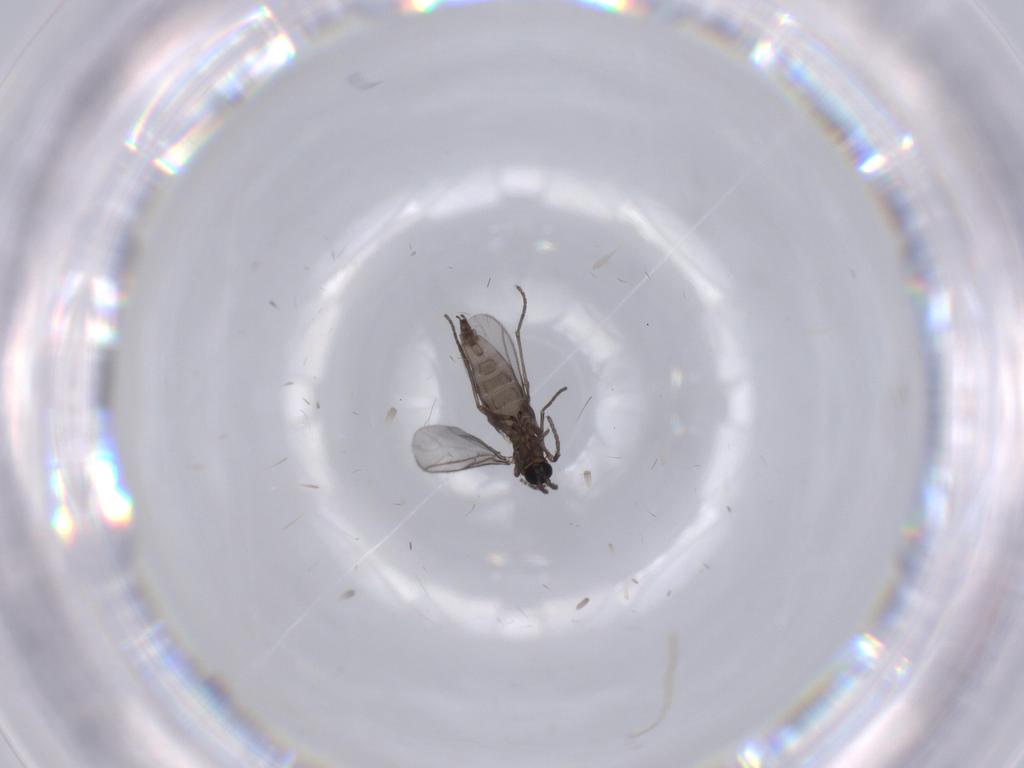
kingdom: Animalia
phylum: Arthropoda
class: Insecta
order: Diptera
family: Sciaridae
